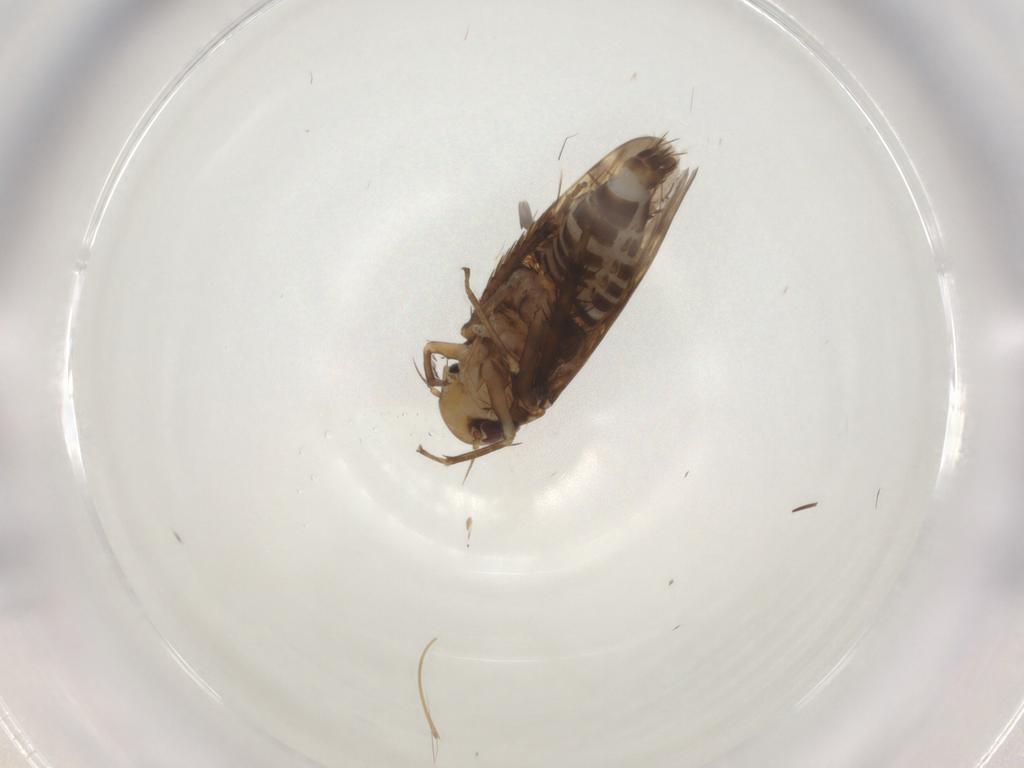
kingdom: Animalia
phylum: Arthropoda
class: Insecta
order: Hemiptera
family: Cicadellidae
